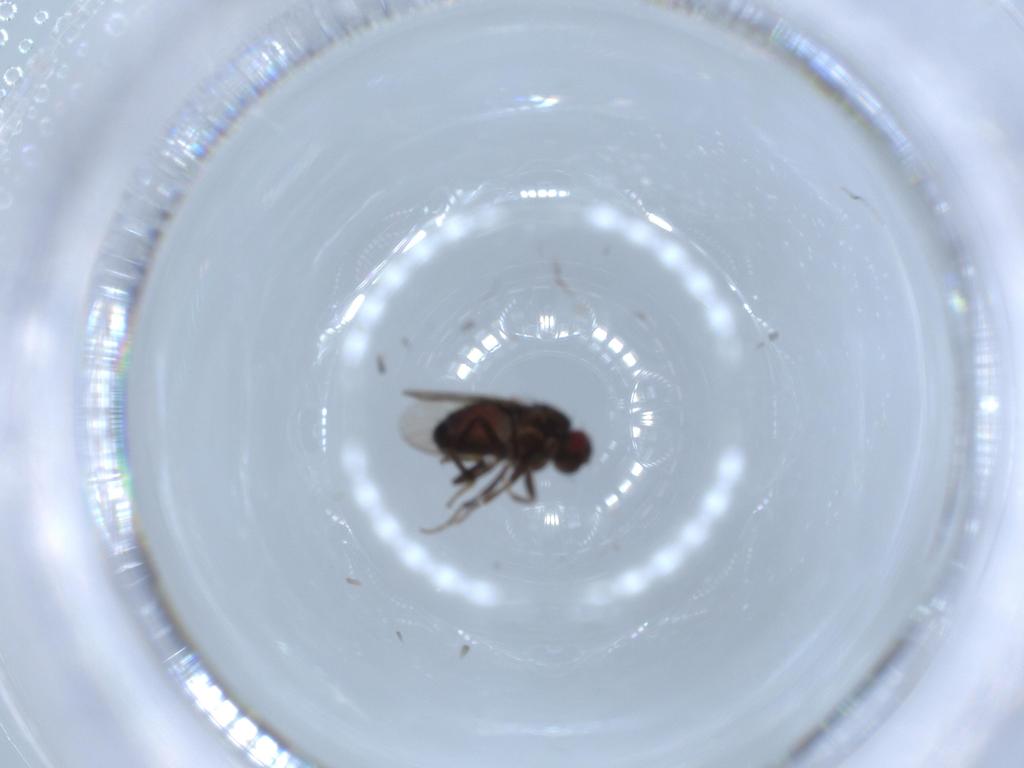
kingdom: Animalia
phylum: Arthropoda
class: Insecta
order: Diptera
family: Sphaeroceridae
